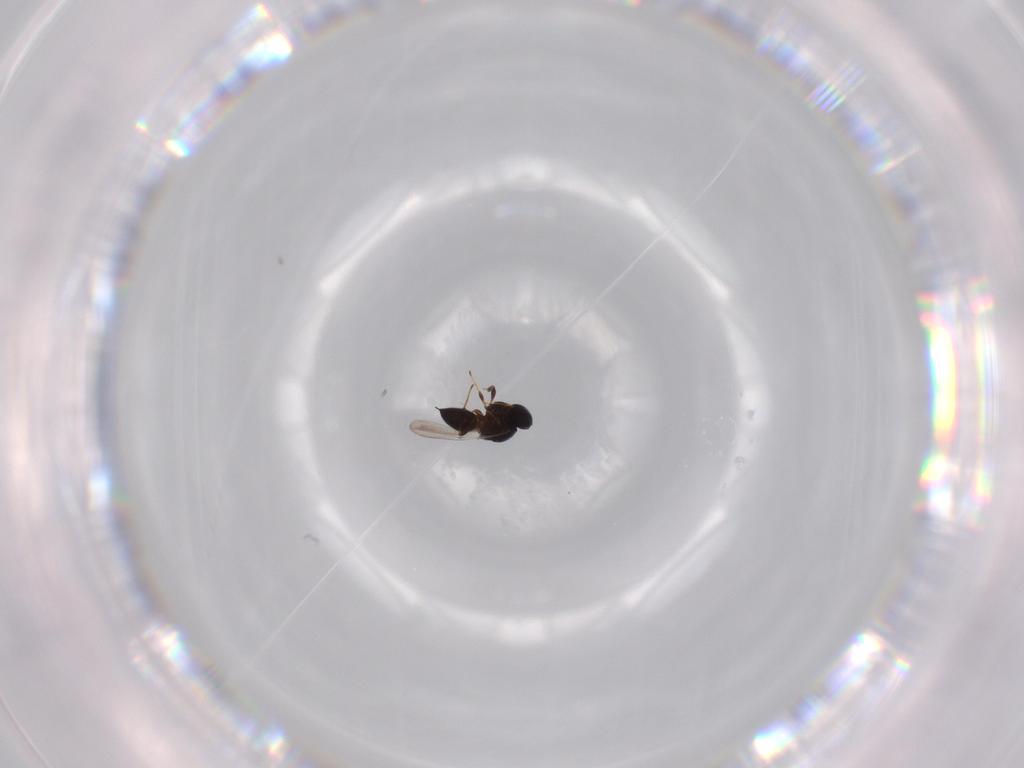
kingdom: Animalia
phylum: Arthropoda
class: Insecta
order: Hymenoptera
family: Platygastridae
